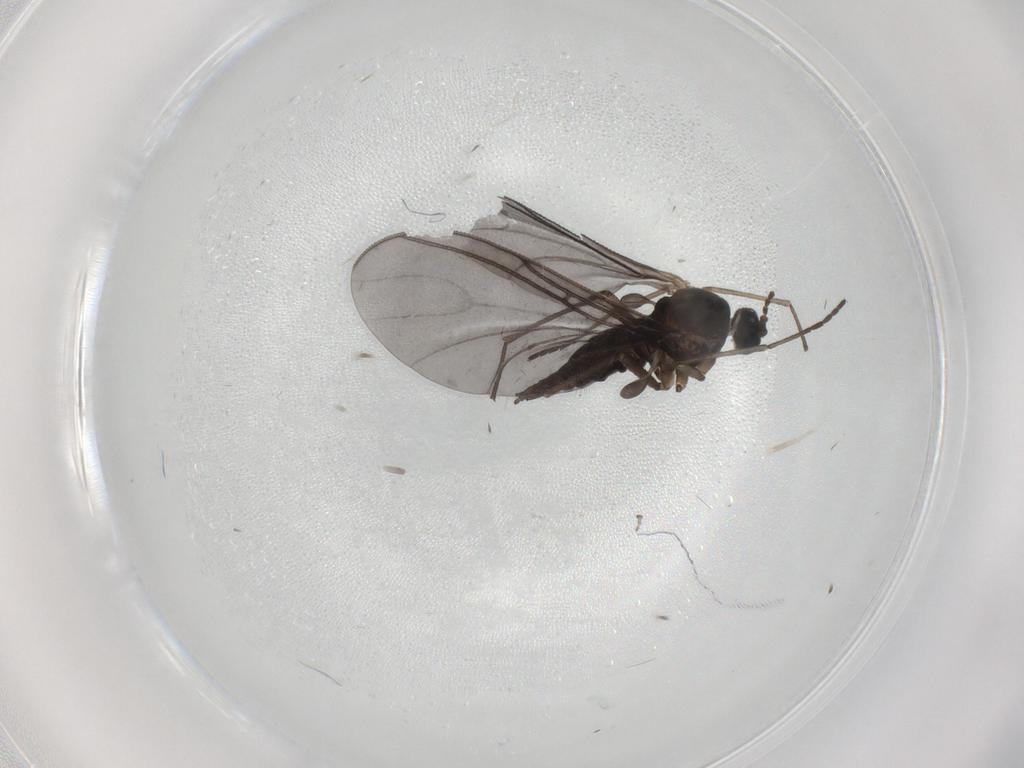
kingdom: Animalia
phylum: Arthropoda
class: Insecta
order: Diptera
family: Sciaridae
